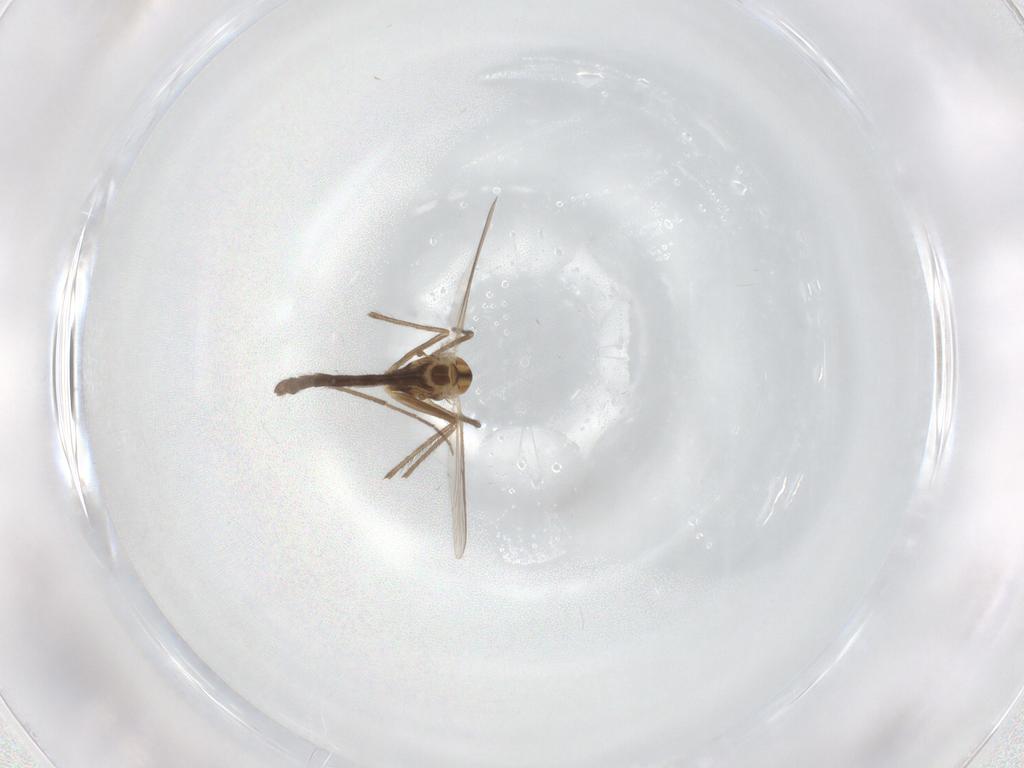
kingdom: Animalia
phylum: Arthropoda
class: Insecta
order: Diptera
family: Chironomidae
